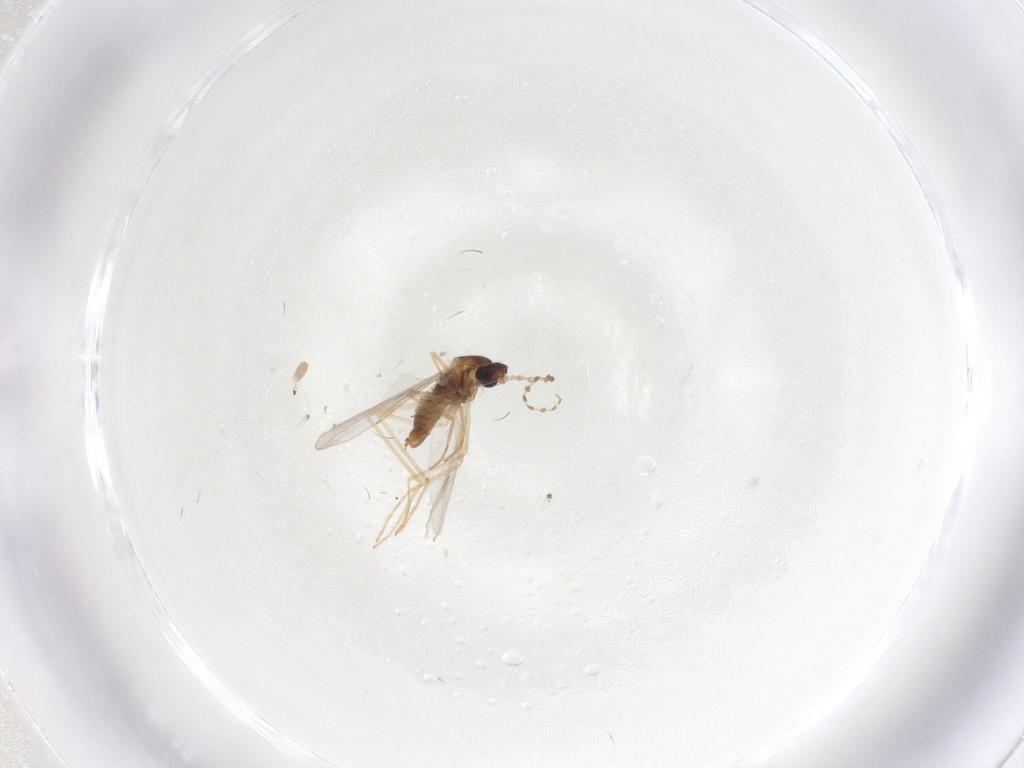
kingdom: Animalia
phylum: Arthropoda
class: Insecta
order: Diptera
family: Cecidomyiidae
